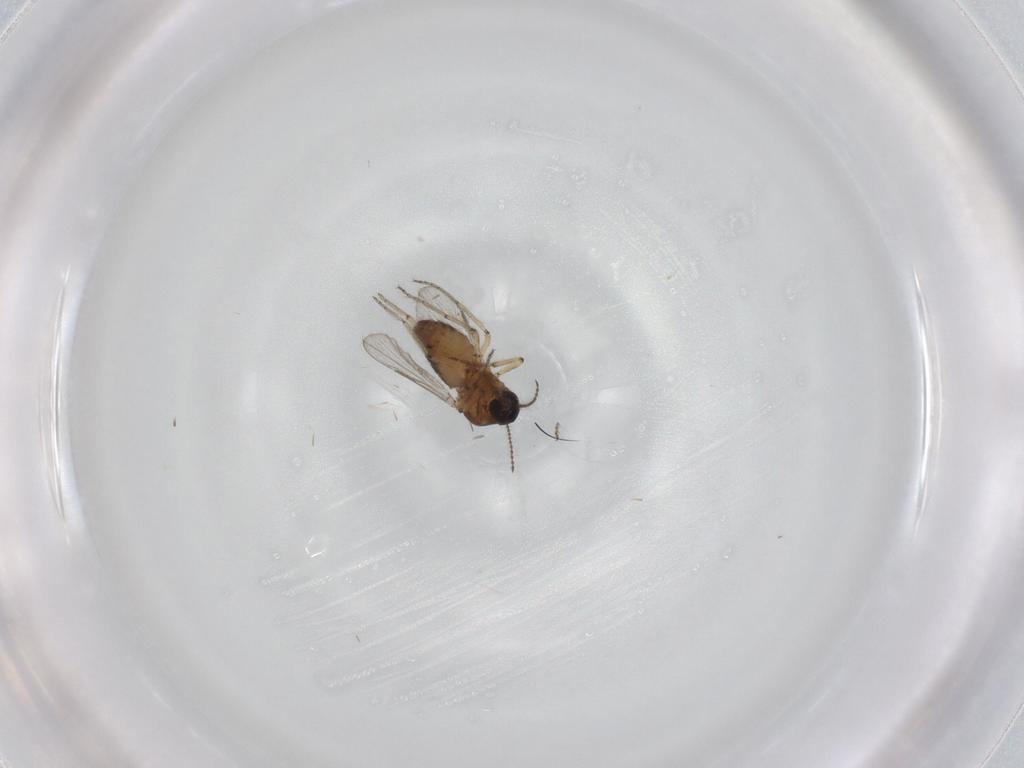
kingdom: Animalia
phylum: Arthropoda
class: Insecta
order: Diptera
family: Ceratopogonidae
